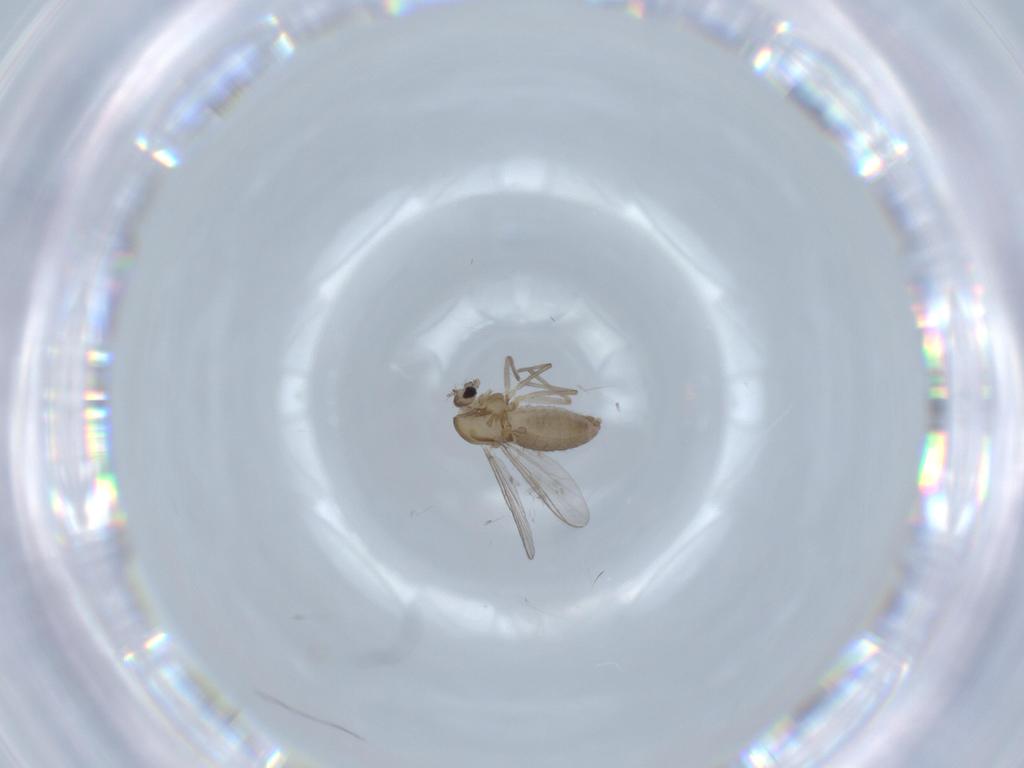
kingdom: Animalia
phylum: Arthropoda
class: Insecta
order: Diptera
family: Chironomidae
